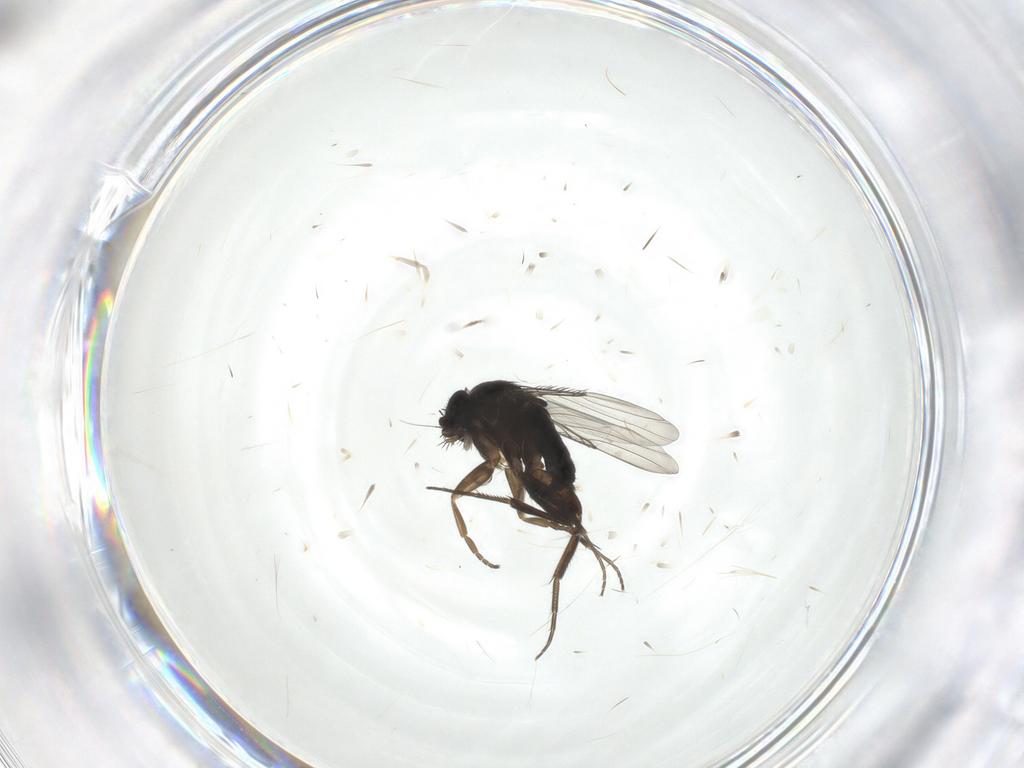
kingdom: Animalia
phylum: Arthropoda
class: Insecta
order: Diptera
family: Phoridae
